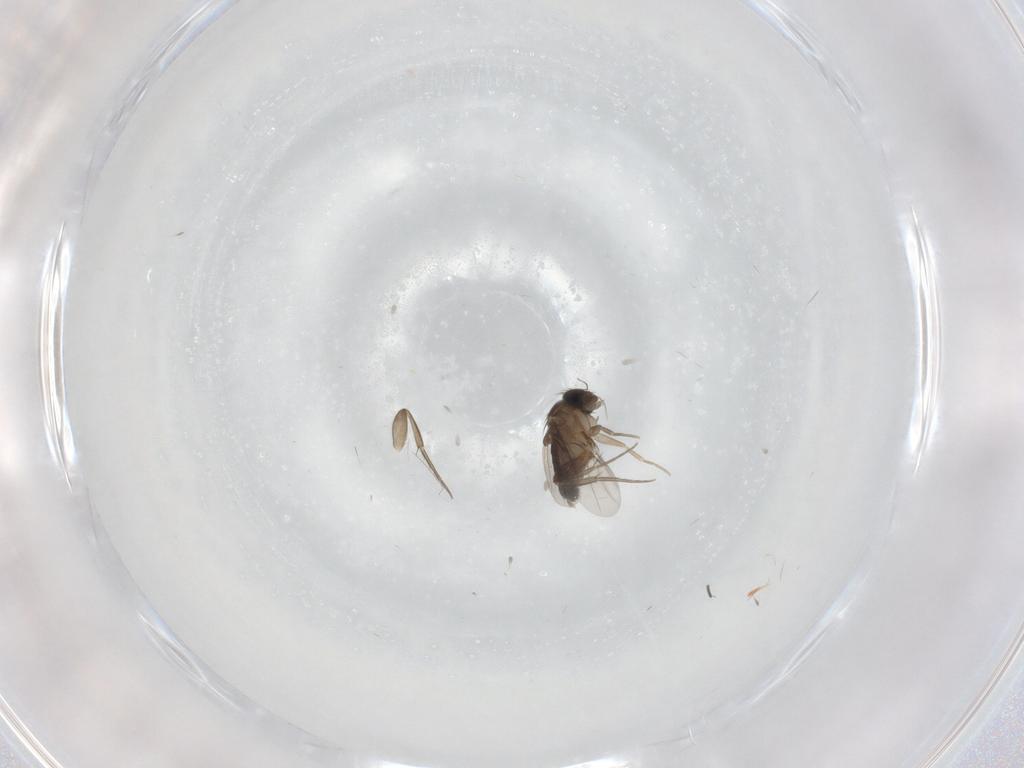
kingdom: Animalia
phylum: Arthropoda
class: Insecta
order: Diptera
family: Phoridae
